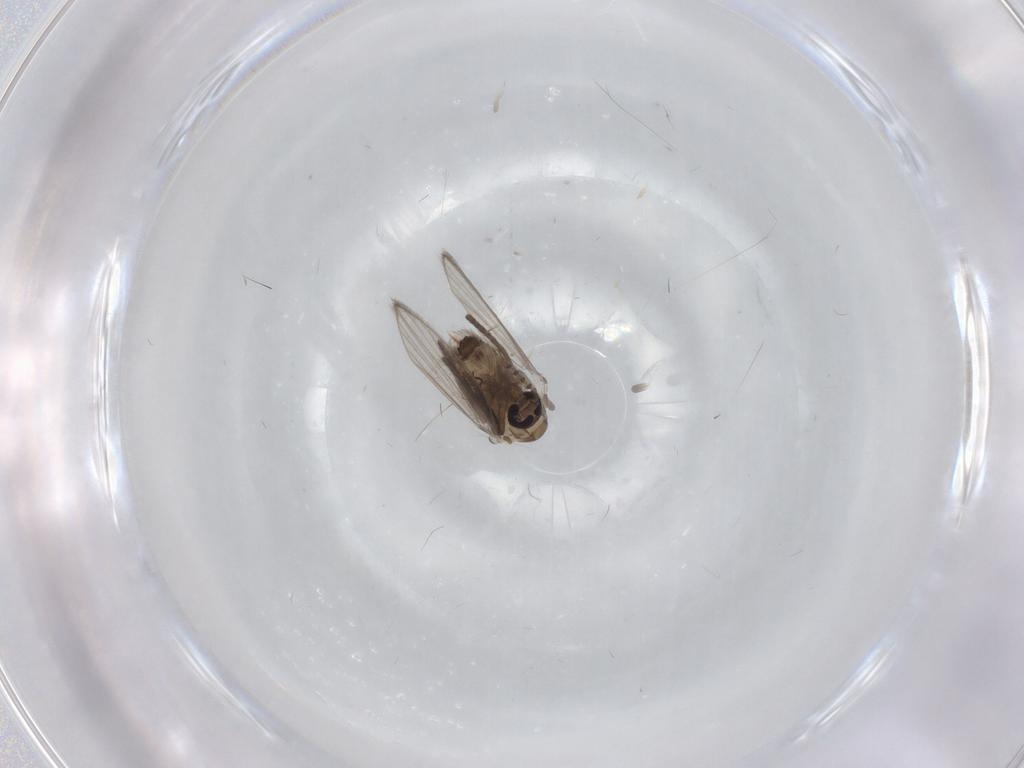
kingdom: Animalia
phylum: Arthropoda
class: Insecta
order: Diptera
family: Psychodidae
